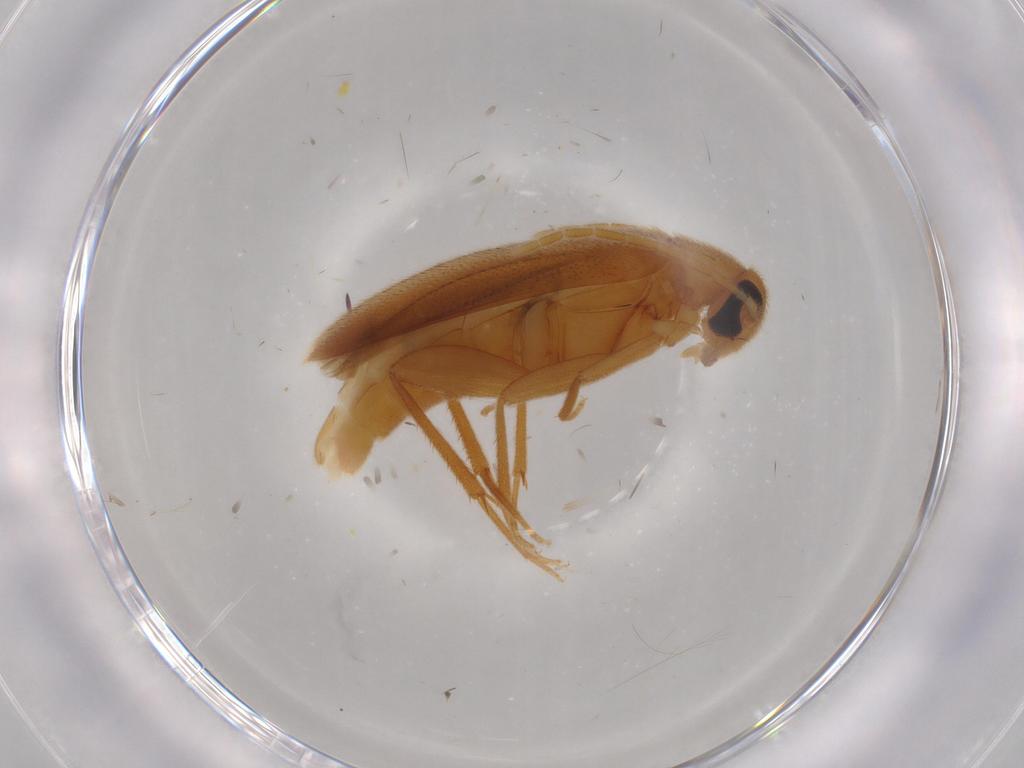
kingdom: Animalia
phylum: Arthropoda
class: Insecta
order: Coleoptera
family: Scraptiidae
